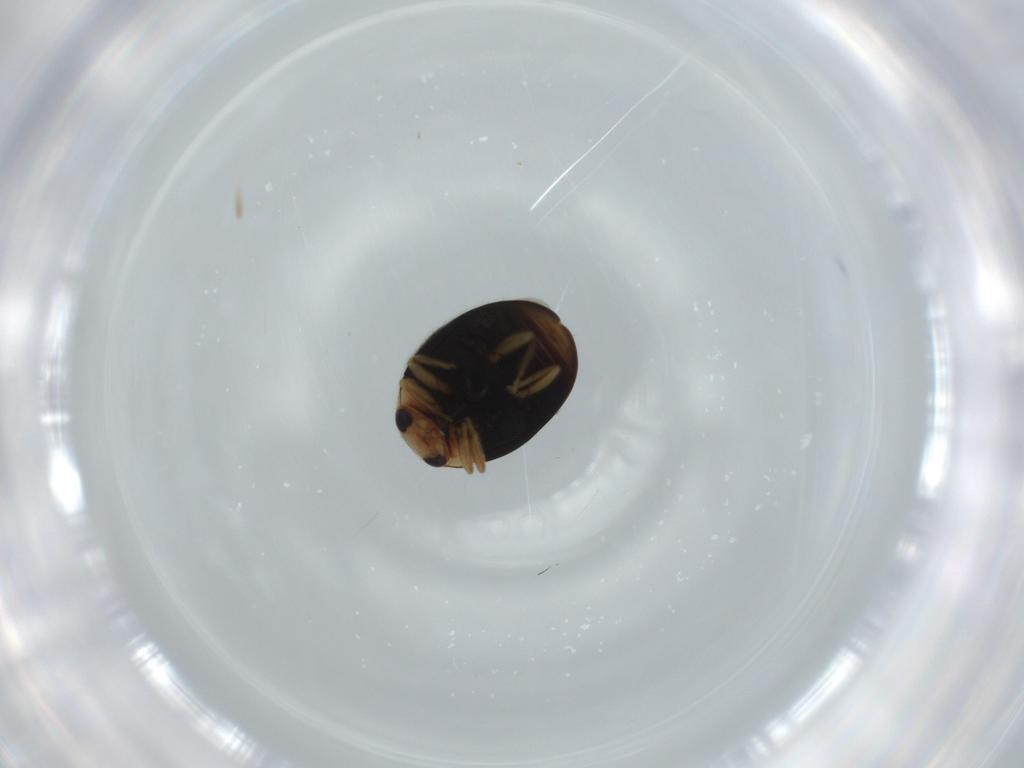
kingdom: Animalia
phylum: Arthropoda
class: Insecta
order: Coleoptera
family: Coccinellidae
